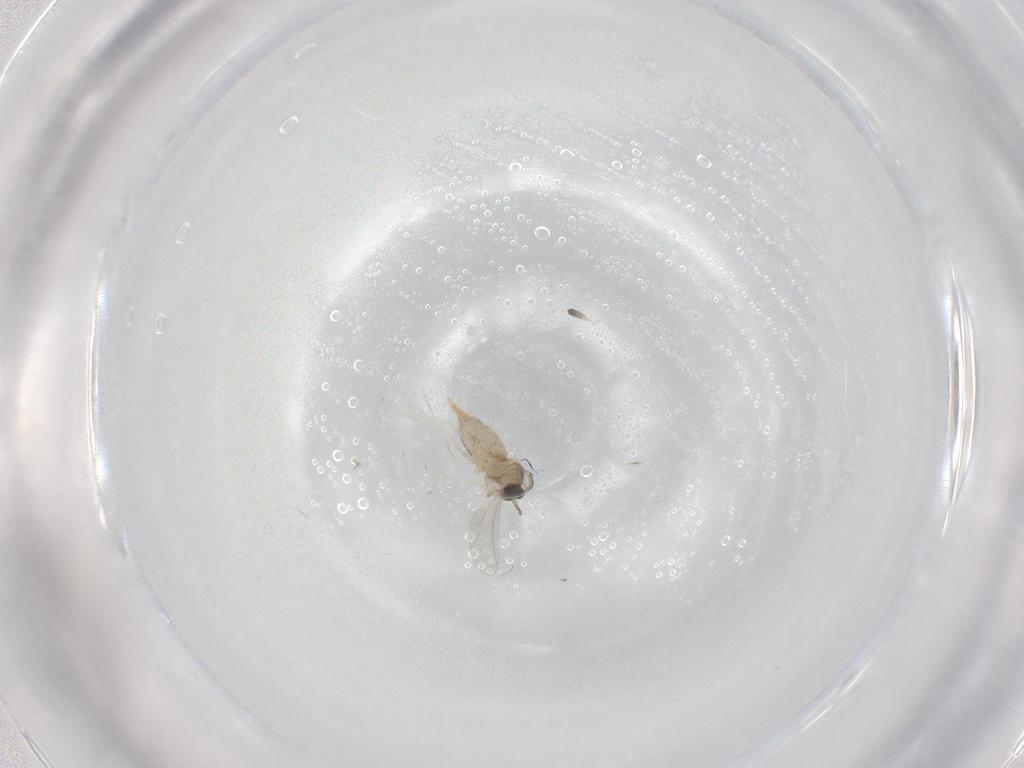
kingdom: Animalia
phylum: Arthropoda
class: Insecta
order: Diptera
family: Cecidomyiidae
